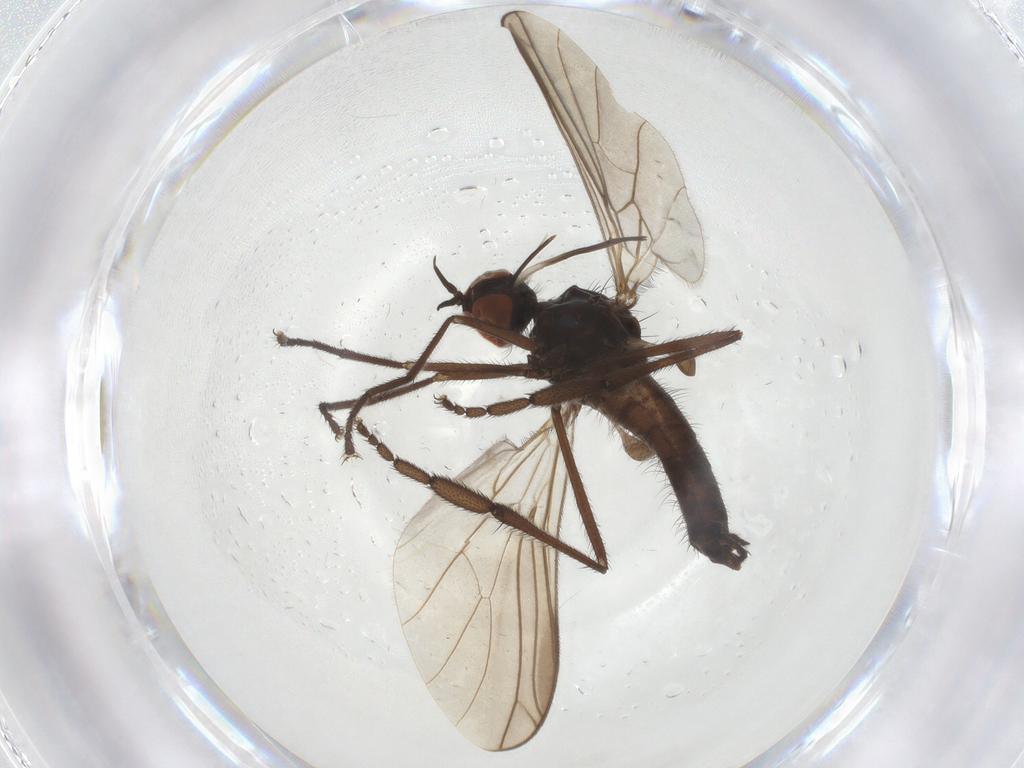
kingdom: Animalia
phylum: Arthropoda
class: Insecta
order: Diptera
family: Empididae
